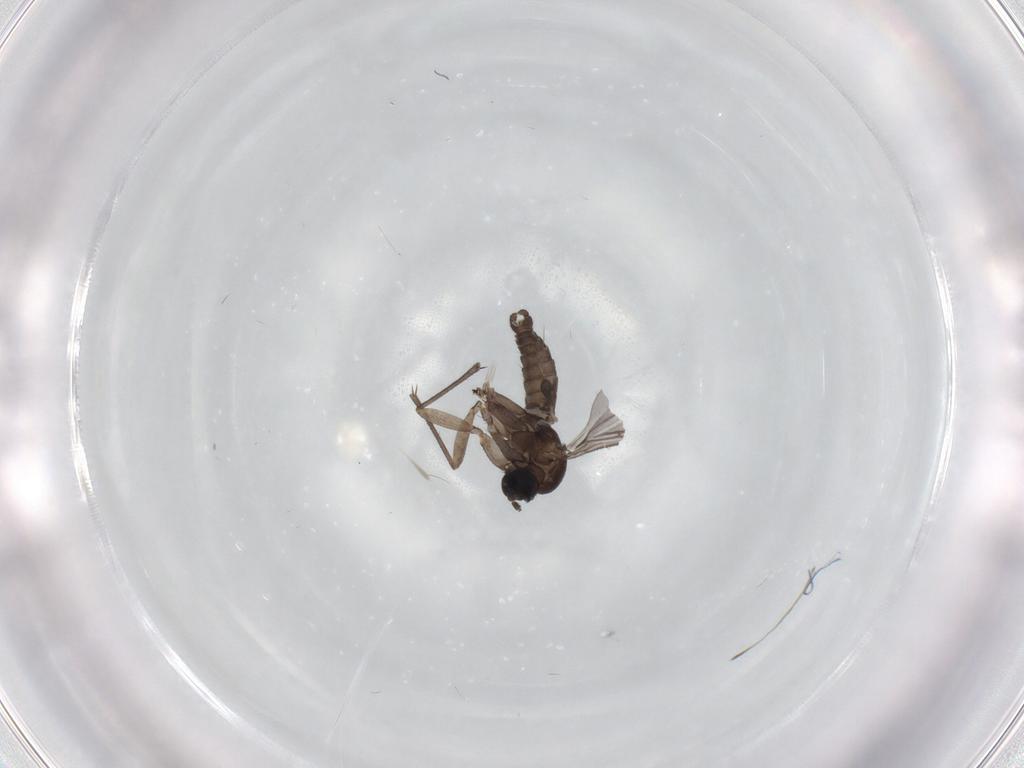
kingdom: Animalia
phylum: Arthropoda
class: Insecta
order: Diptera
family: Sciaridae
